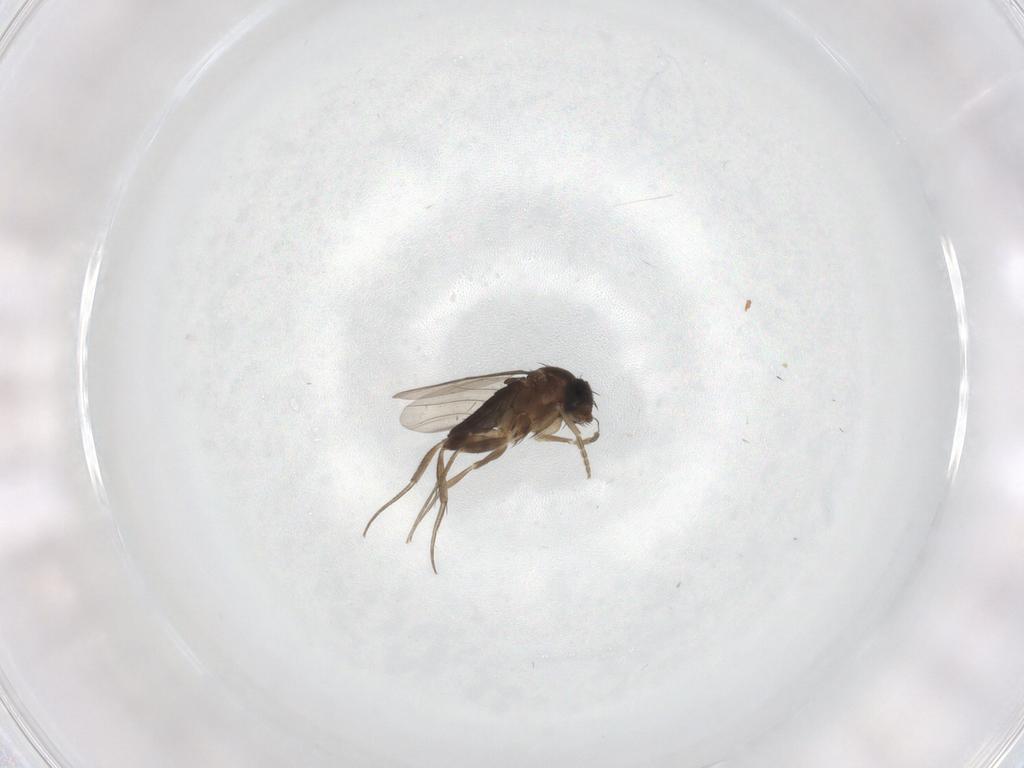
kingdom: Animalia
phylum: Arthropoda
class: Insecta
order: Diptera
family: Phoridae
